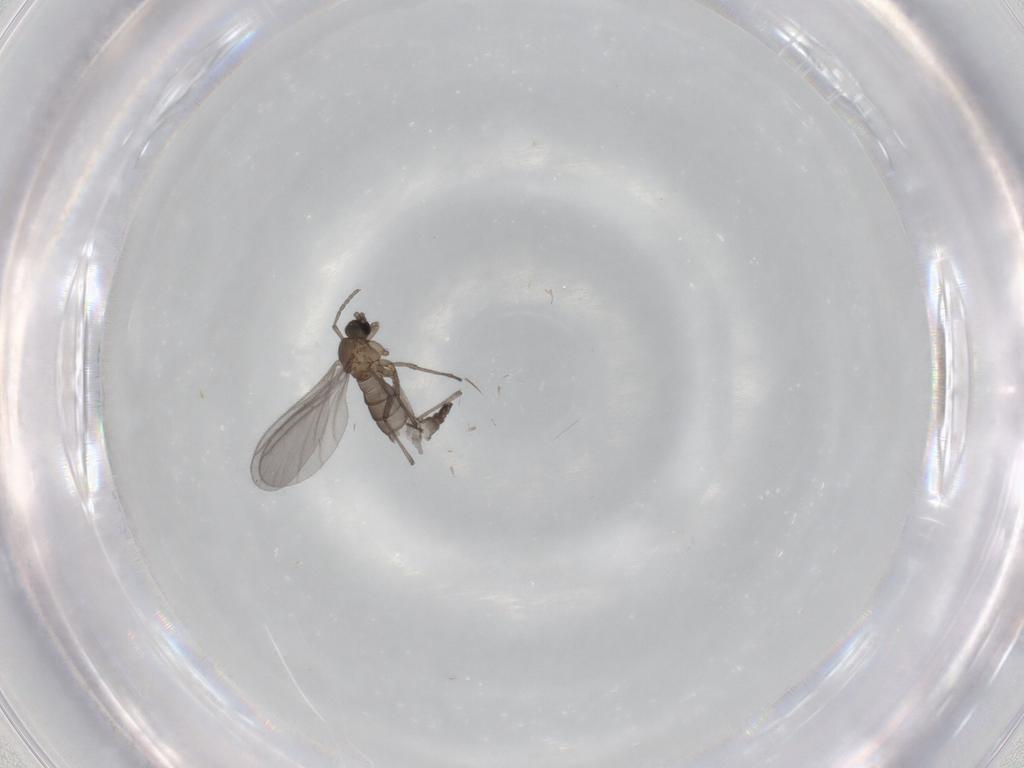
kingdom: Animalia
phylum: Arthropoda
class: Insecta
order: Diptera
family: Sciaridae
